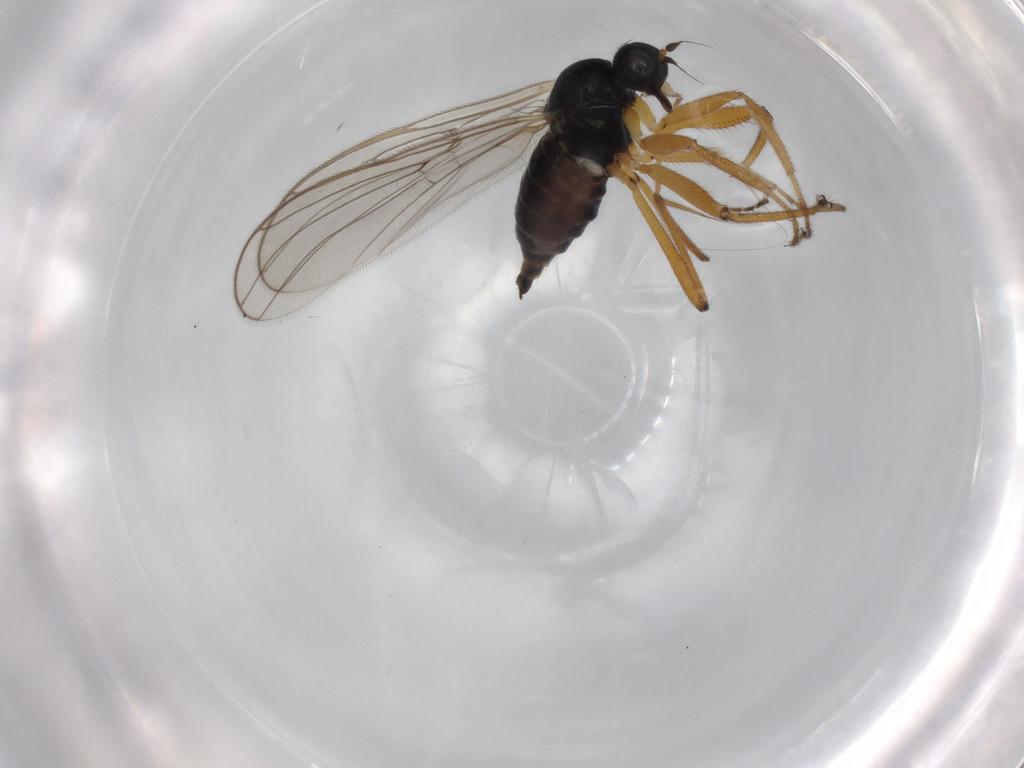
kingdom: Animalia
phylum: Arthropoda
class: Insecta
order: Diptera
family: Hybotidae
